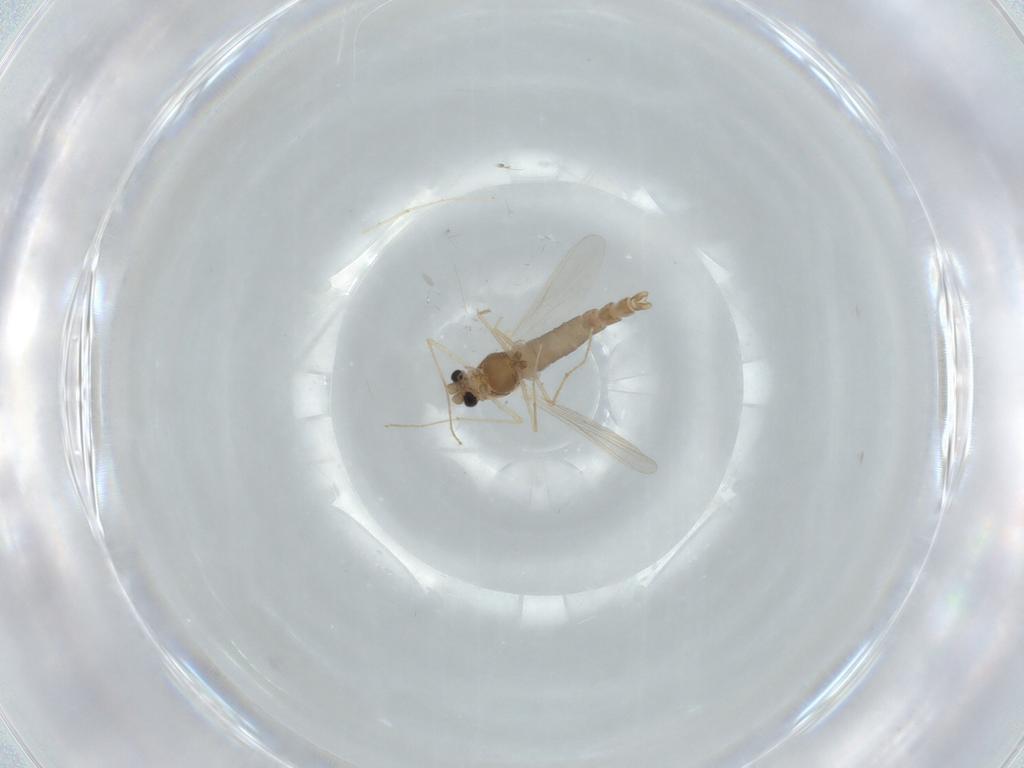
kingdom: Animalia
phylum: Arthropoda
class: Insecta
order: Diptera
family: Chironomidae
